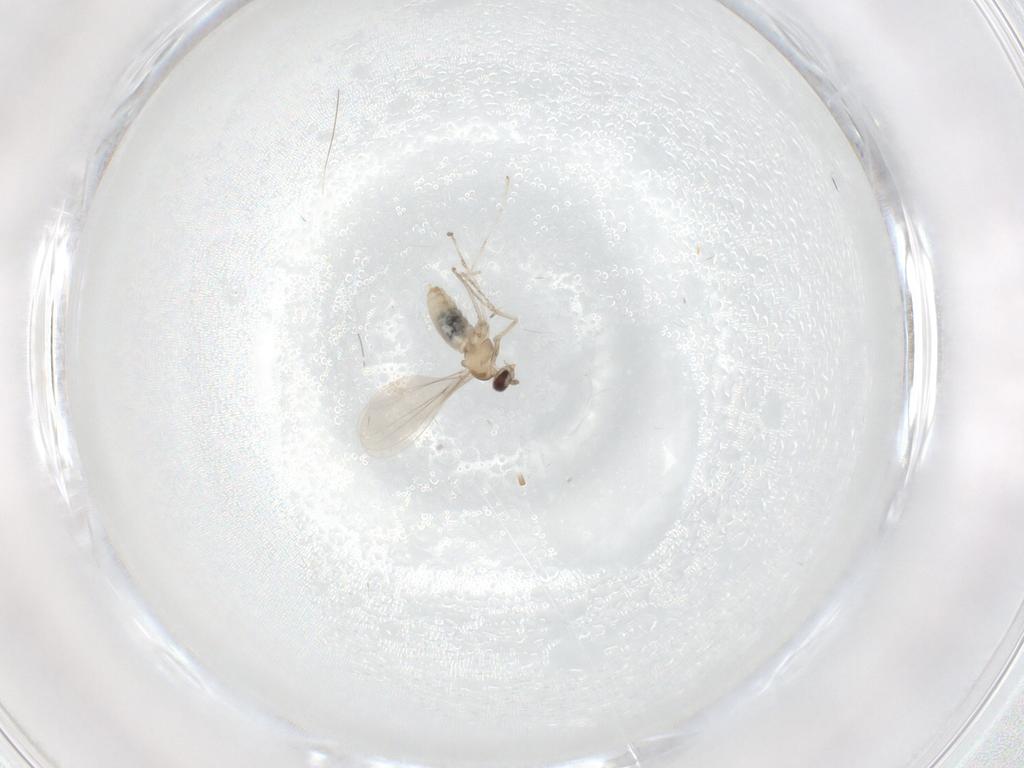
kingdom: Animalia
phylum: Arthropoda
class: Insecta
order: Diptera
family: Cecidomyiidae
